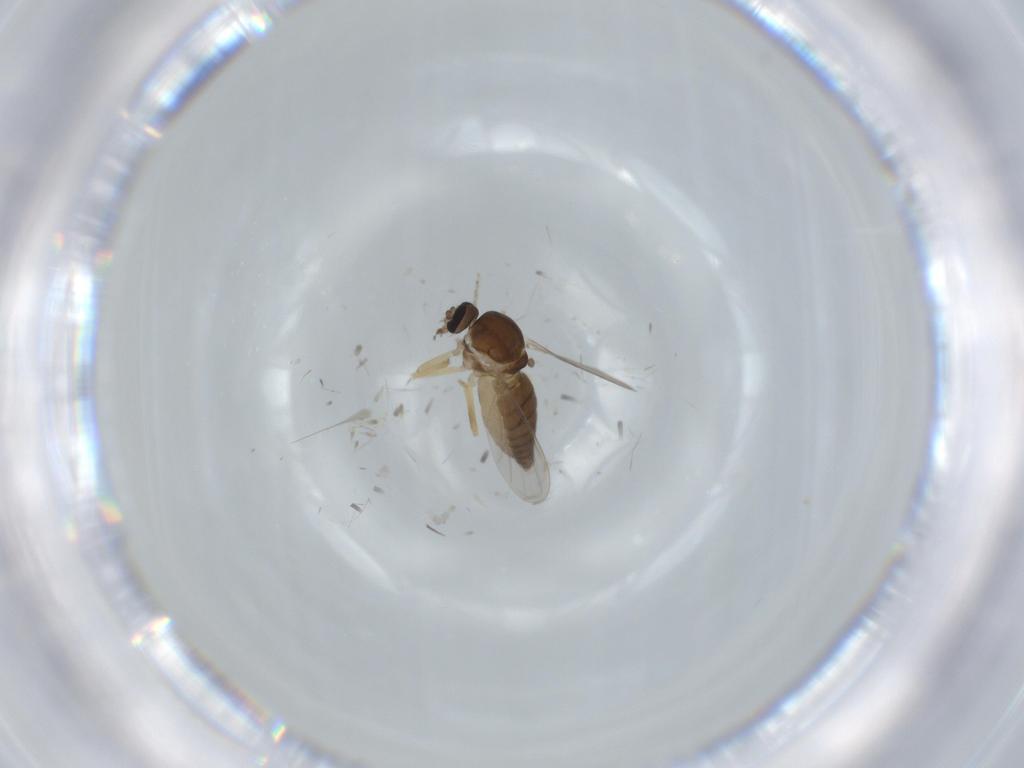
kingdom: Animalia
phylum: Arthropoda
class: Insecta
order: Diptera
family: Ceratopogonidae
